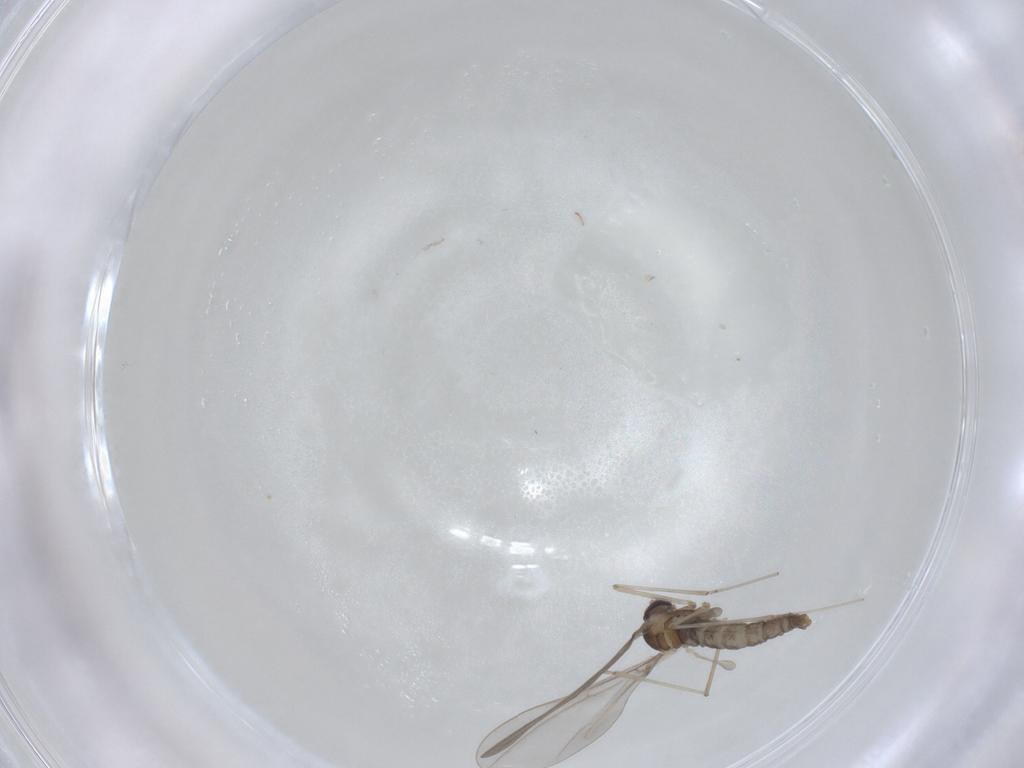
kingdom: Animalia
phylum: Arthropoda
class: Insecta
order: Diptera
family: Cecidomyiidae
